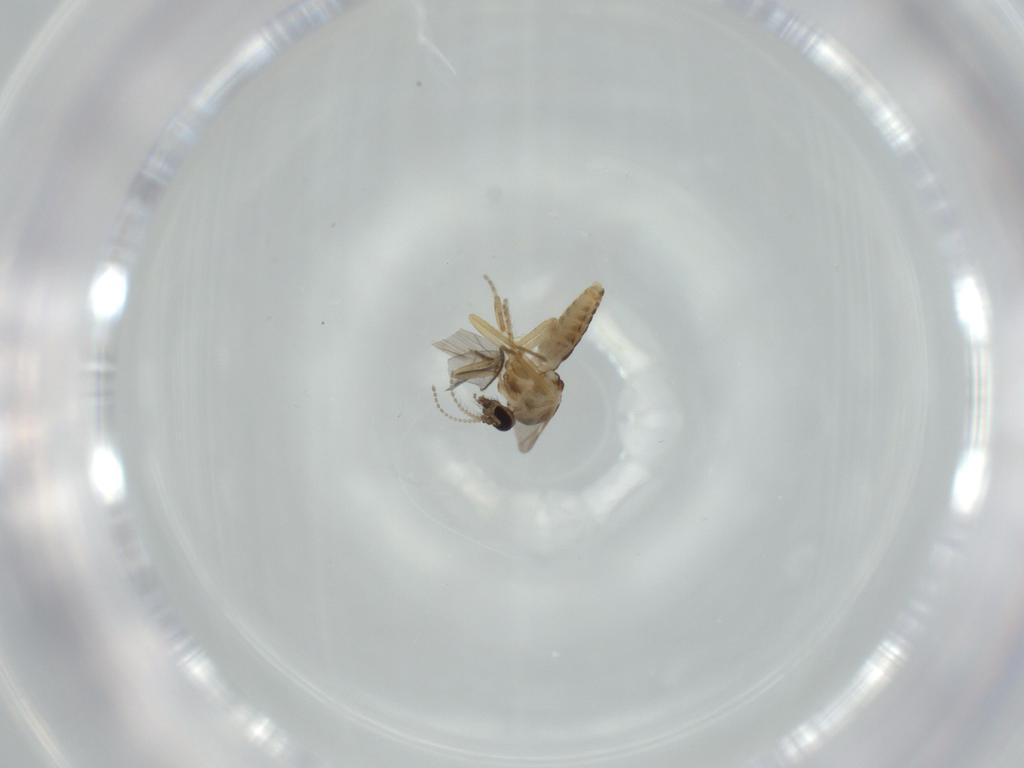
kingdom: Animalia
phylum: Arthropoda
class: Insecta
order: Diptera
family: Ceratopogonidae
